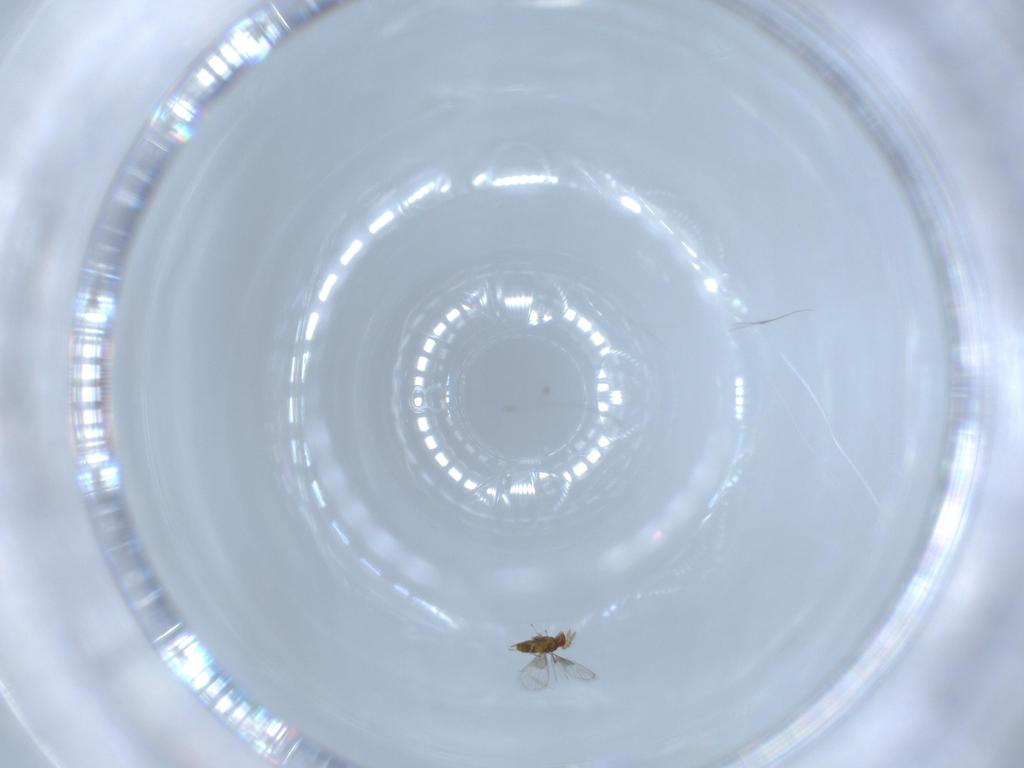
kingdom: Animalia
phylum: Arthropoda
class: Insecta
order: Hymenoptera
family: Trichogrammatidae
